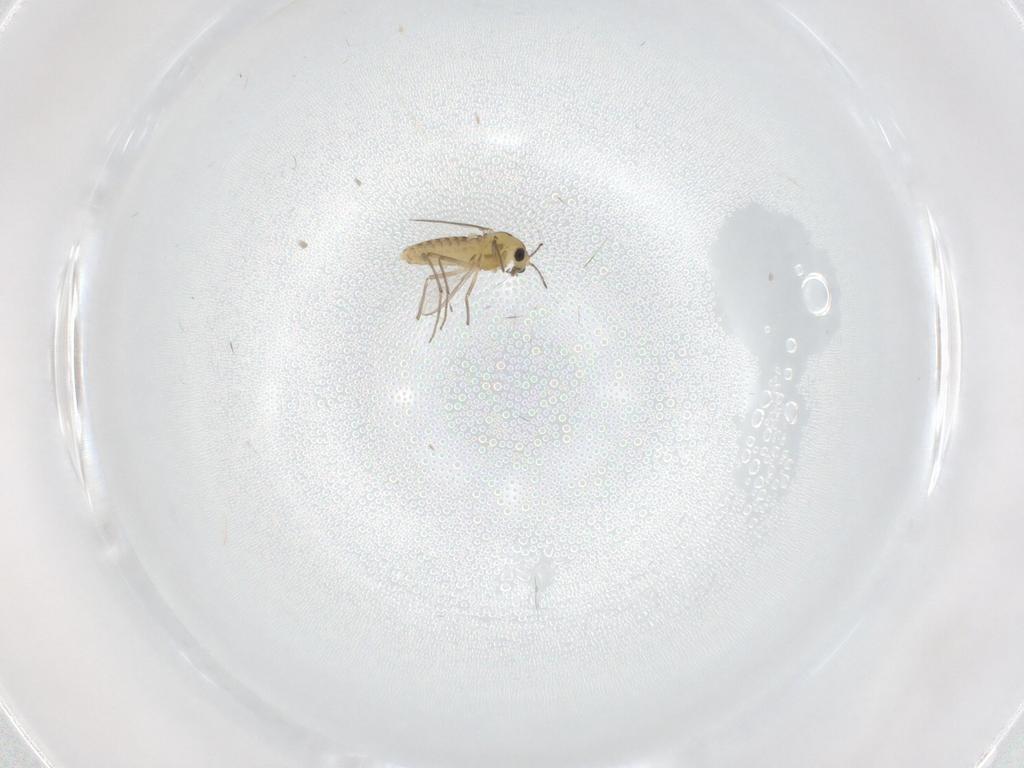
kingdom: Animalia
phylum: Arthropoda
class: Insecta
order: Diptera
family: Chironomidae
